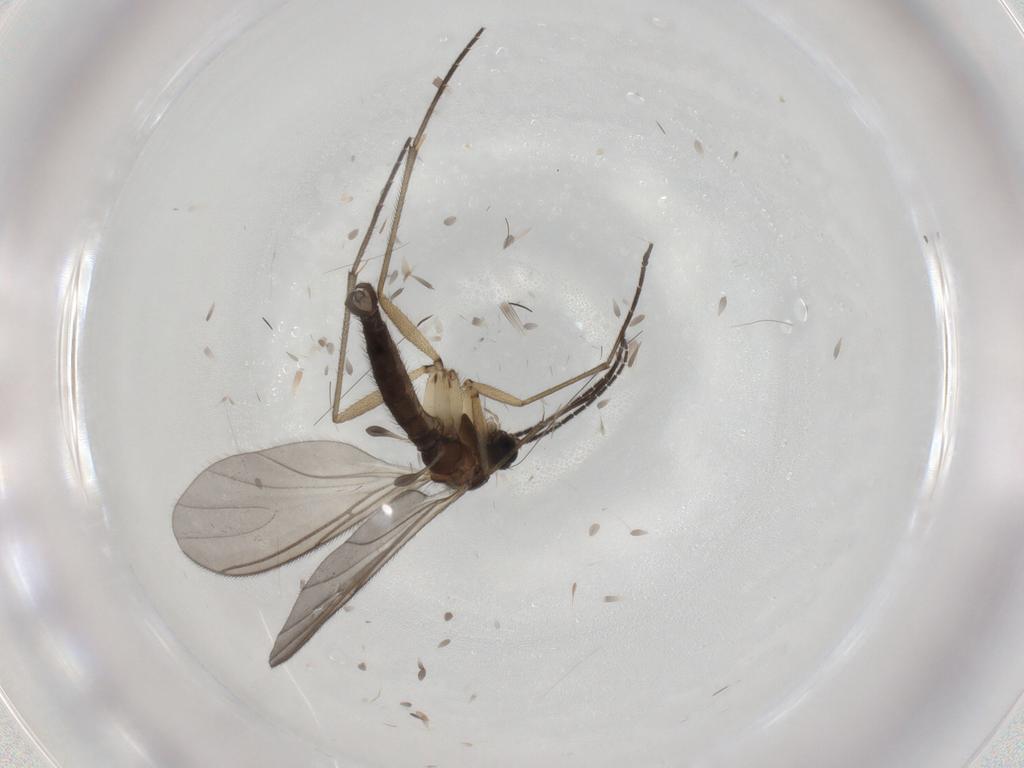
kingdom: Animalia
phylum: Arthropoda
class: Insecta
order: Diptera
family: Sciaridae
